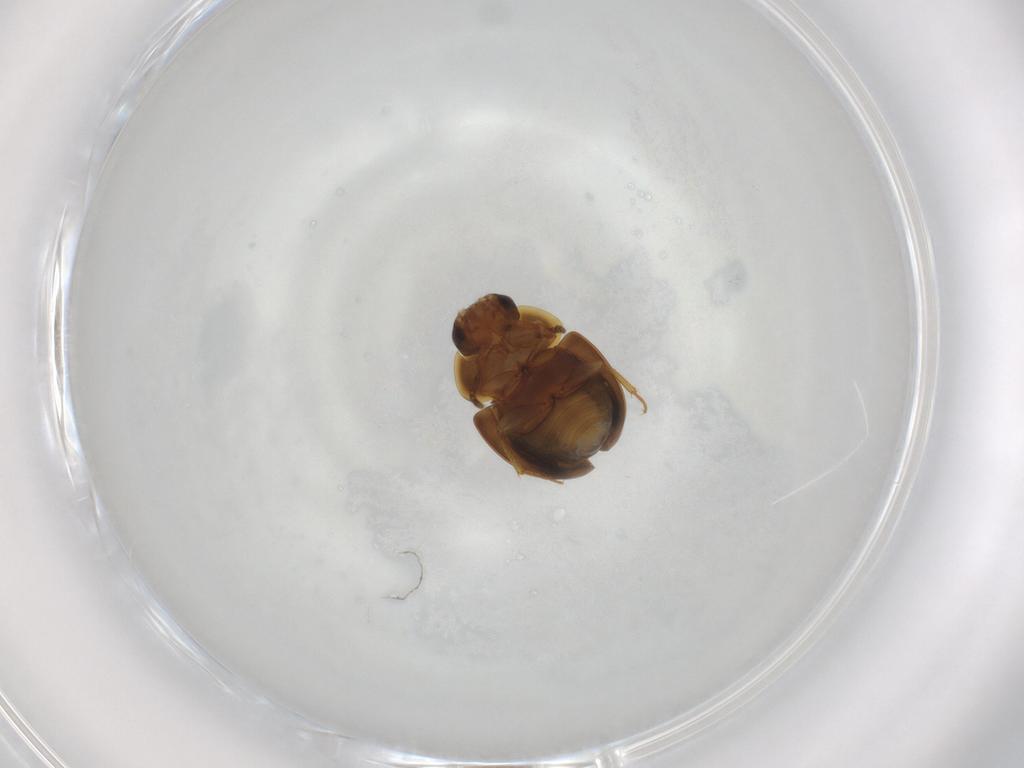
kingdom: Animalia
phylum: Arthropoda
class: Insecta
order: Coleoptera
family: Leiodidae
